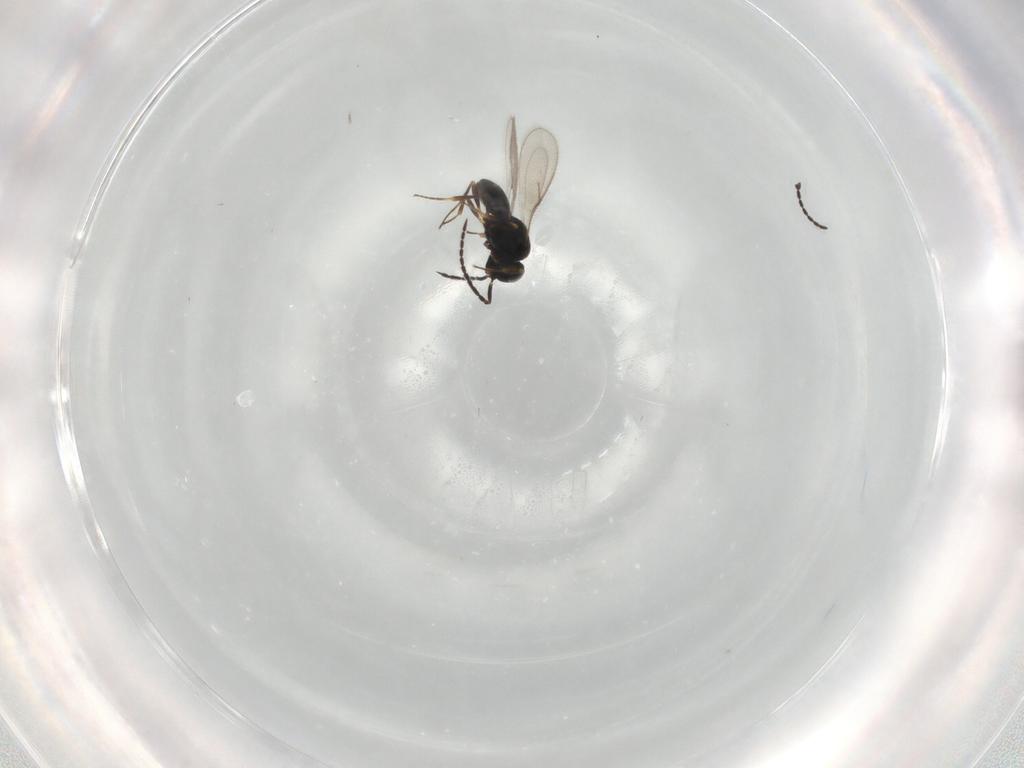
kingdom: Animalia
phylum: Arthropoda
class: Insecta
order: Hymenoptera
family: Scelionidae
